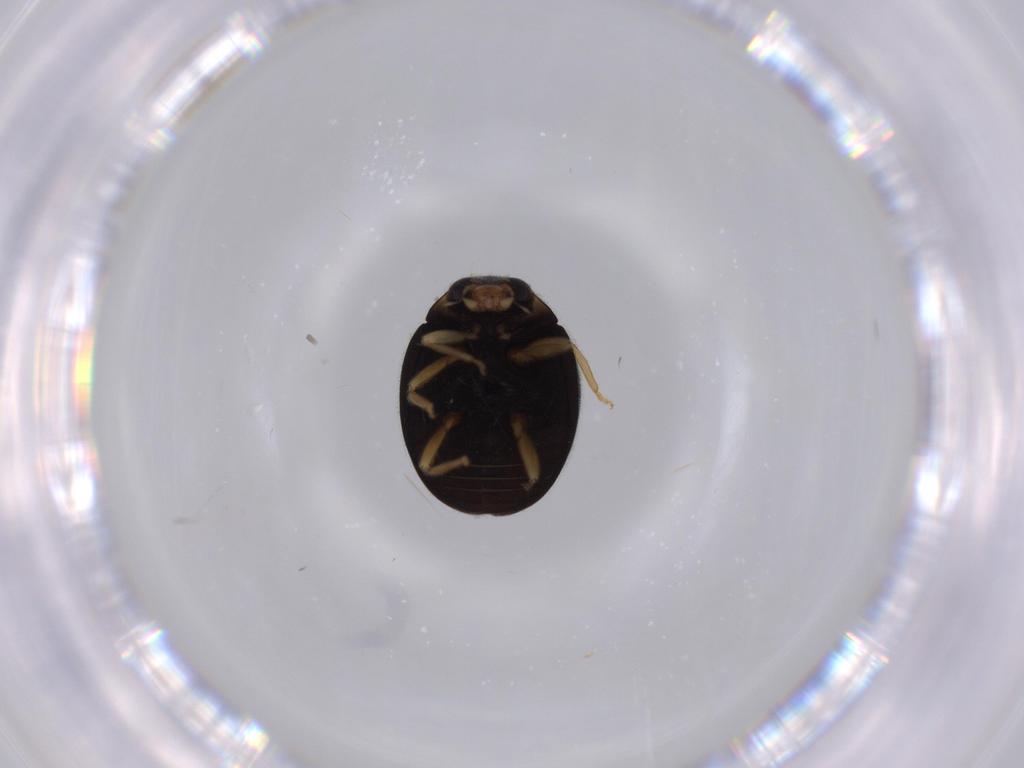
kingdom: Animalia
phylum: Arthropoda
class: Insecta
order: Coleoptera
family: Coccinellidae
